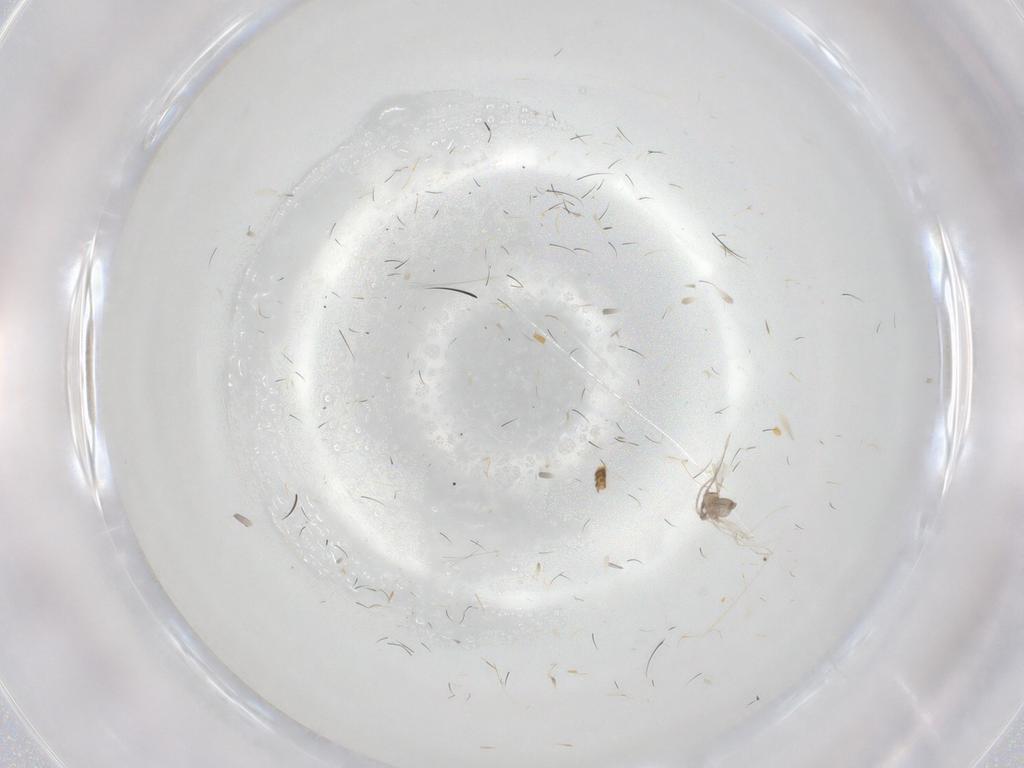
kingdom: Animalia
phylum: Arthropoda
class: Insecta
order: Diptera
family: Cecidomyiidae
